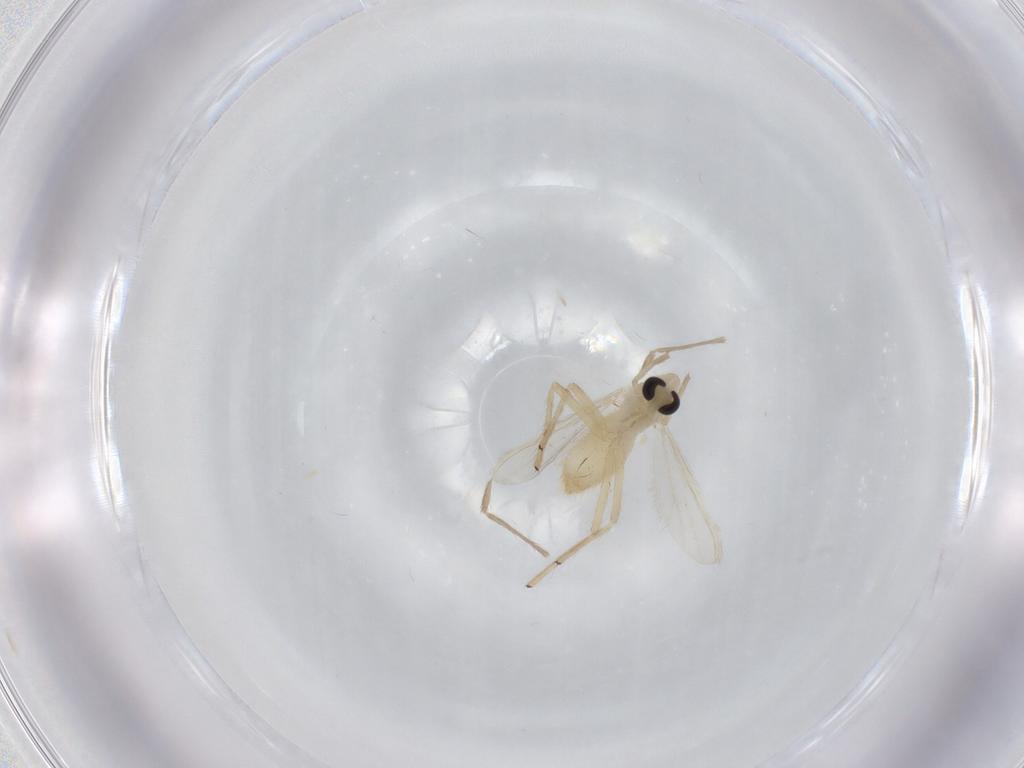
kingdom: Animalia
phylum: Arthropoda
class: Insecta
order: Diptera
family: Chironomidae
